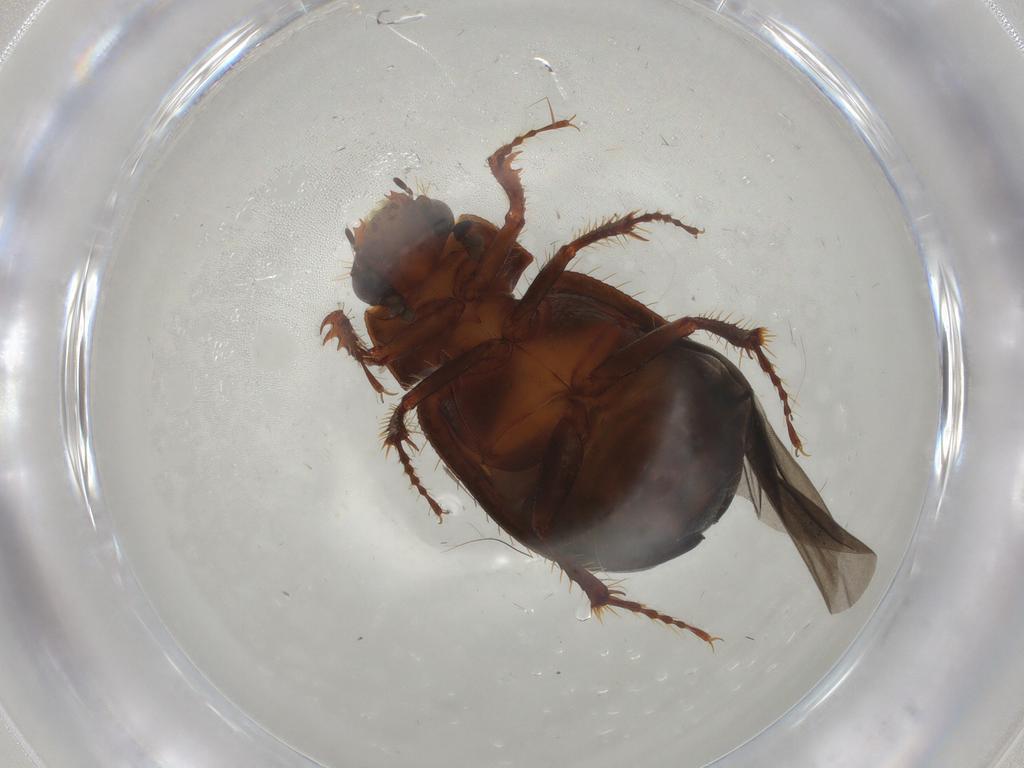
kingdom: Animalia
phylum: Arthropoda
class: Insecta
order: Coleoptera
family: Hybosoridae
